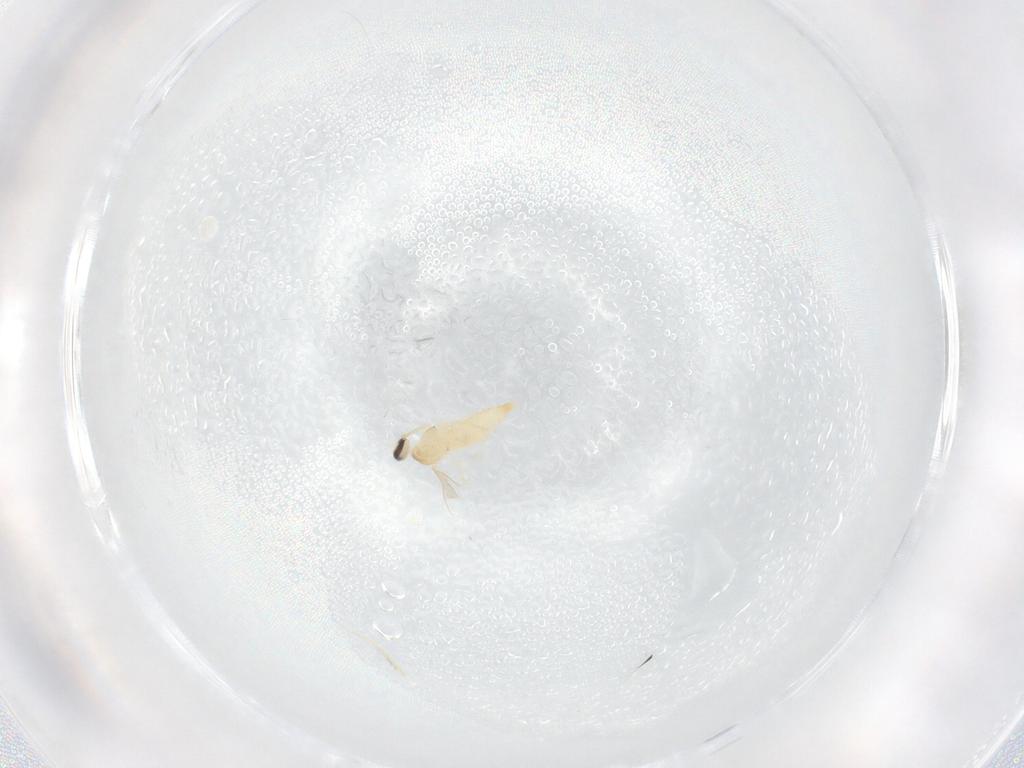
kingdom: Animalia
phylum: Arthropoda
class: Insecta
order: Diptera
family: Cecidomyiidae
